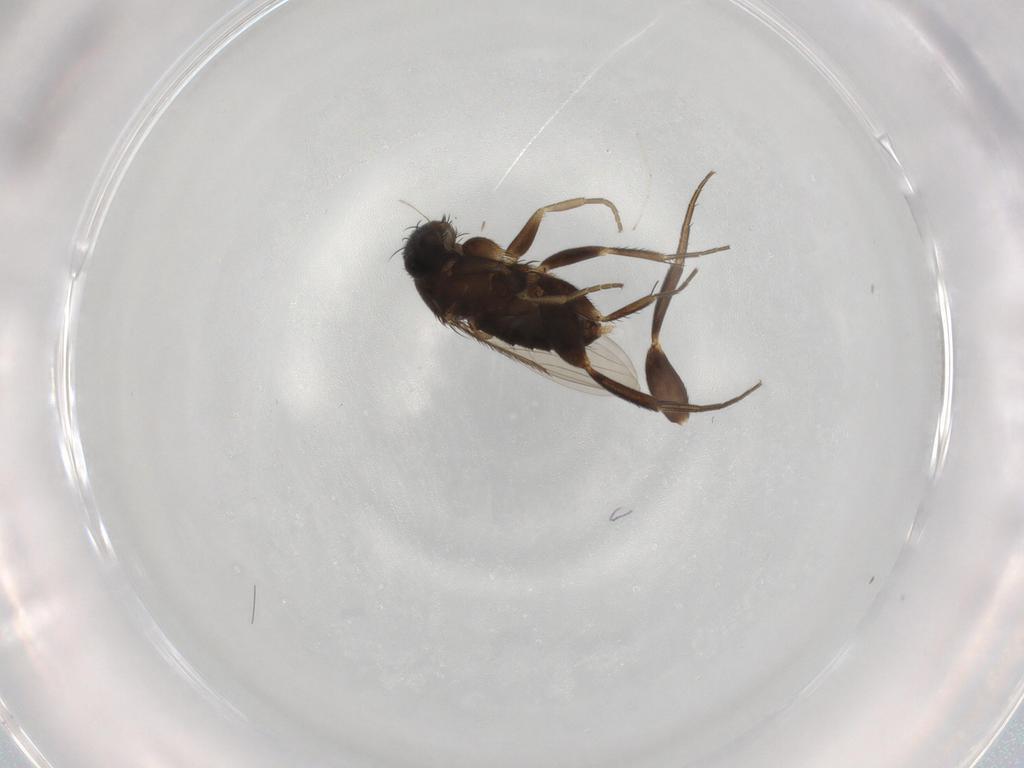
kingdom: Animalia
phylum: Arthropoda
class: Insecta
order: Diptera
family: Phoridae
